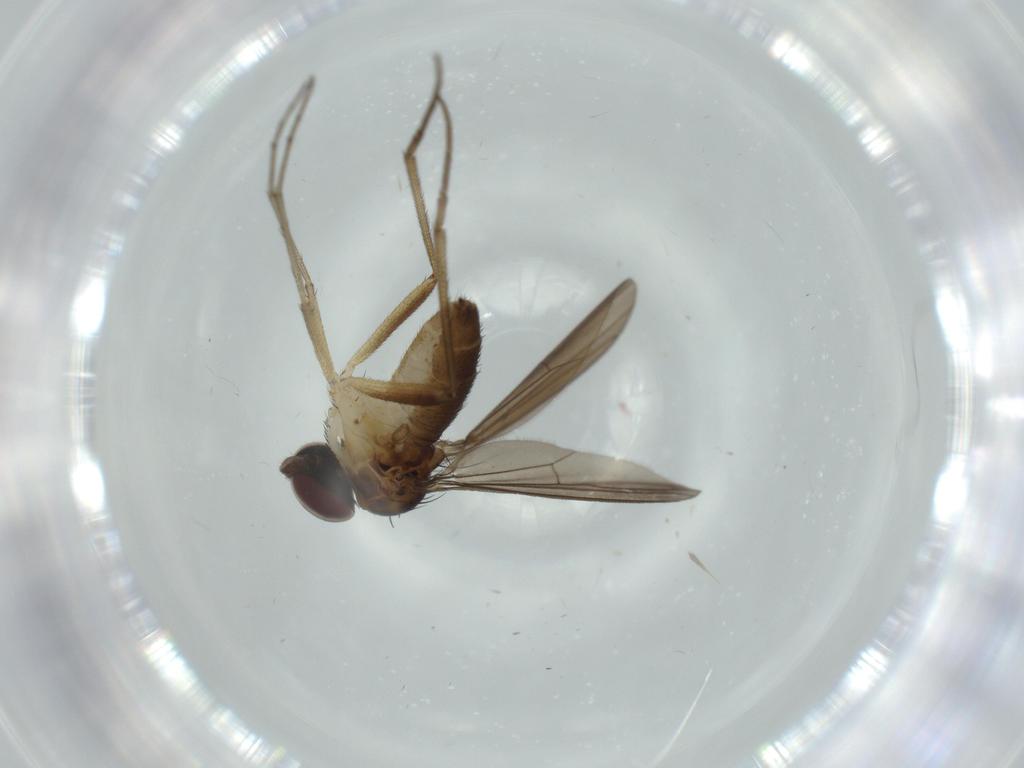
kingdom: Animalia
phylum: Arthropoda
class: Insecta
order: Diptera
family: Dolichopodidae
